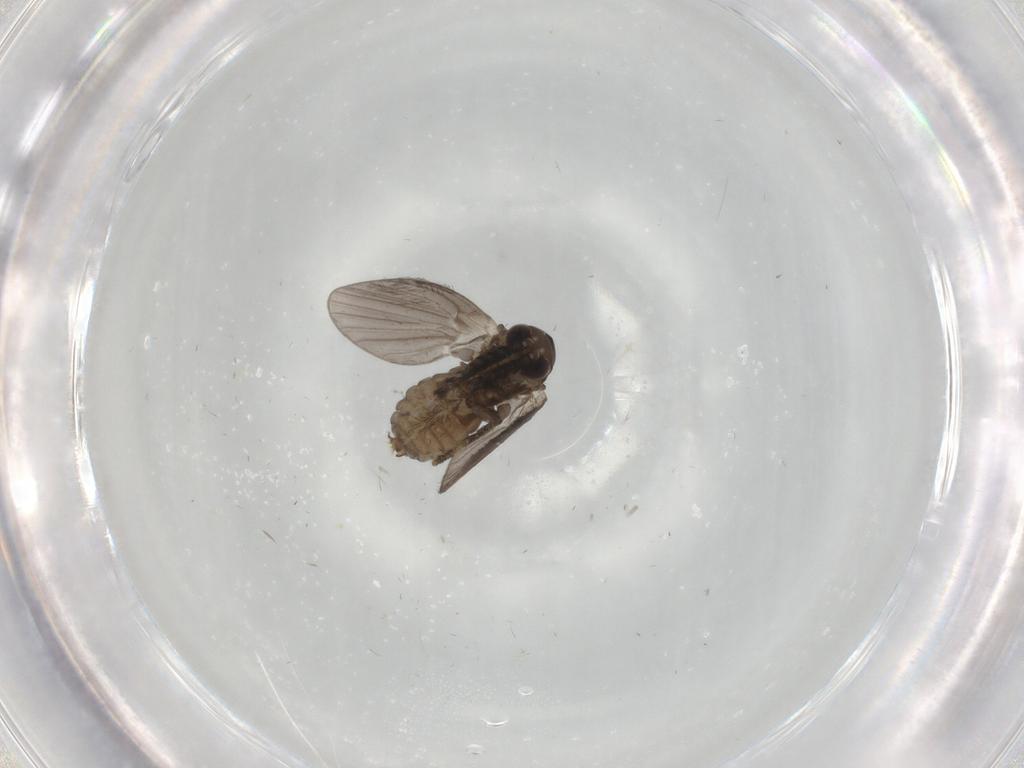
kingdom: Animalia
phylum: Arthropoda
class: Insecta
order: Diptera
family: Psychodidae
